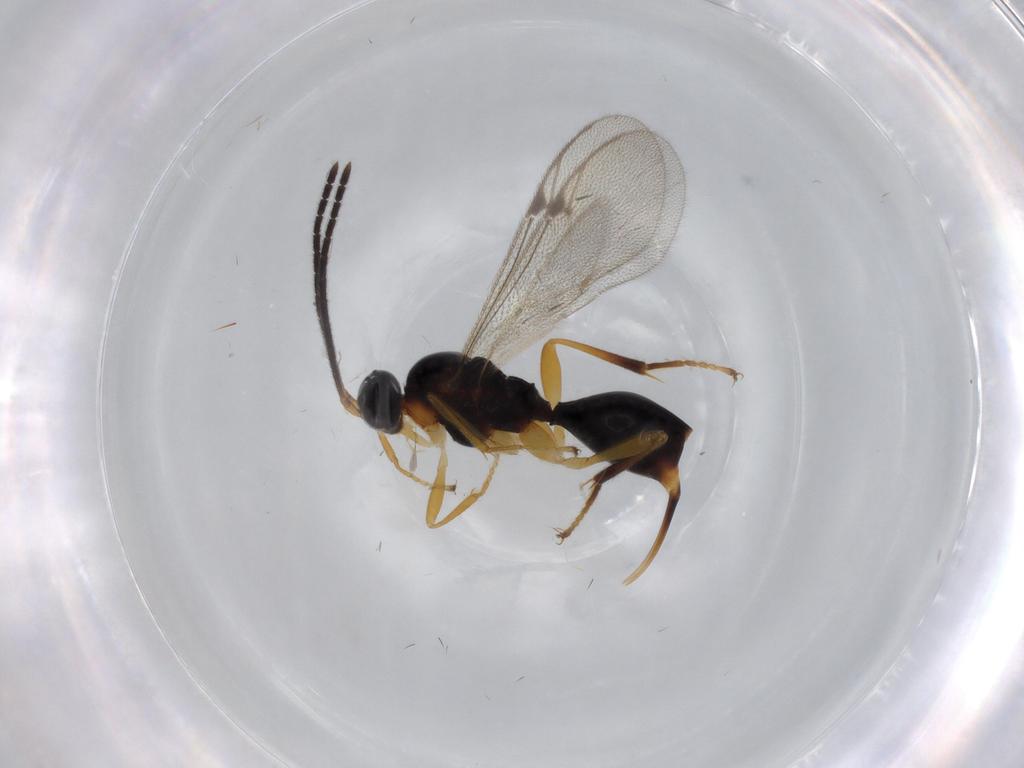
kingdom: Animalia
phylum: Arthropoda
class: Insecta
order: Hymenoptera
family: Proctotrupidae
